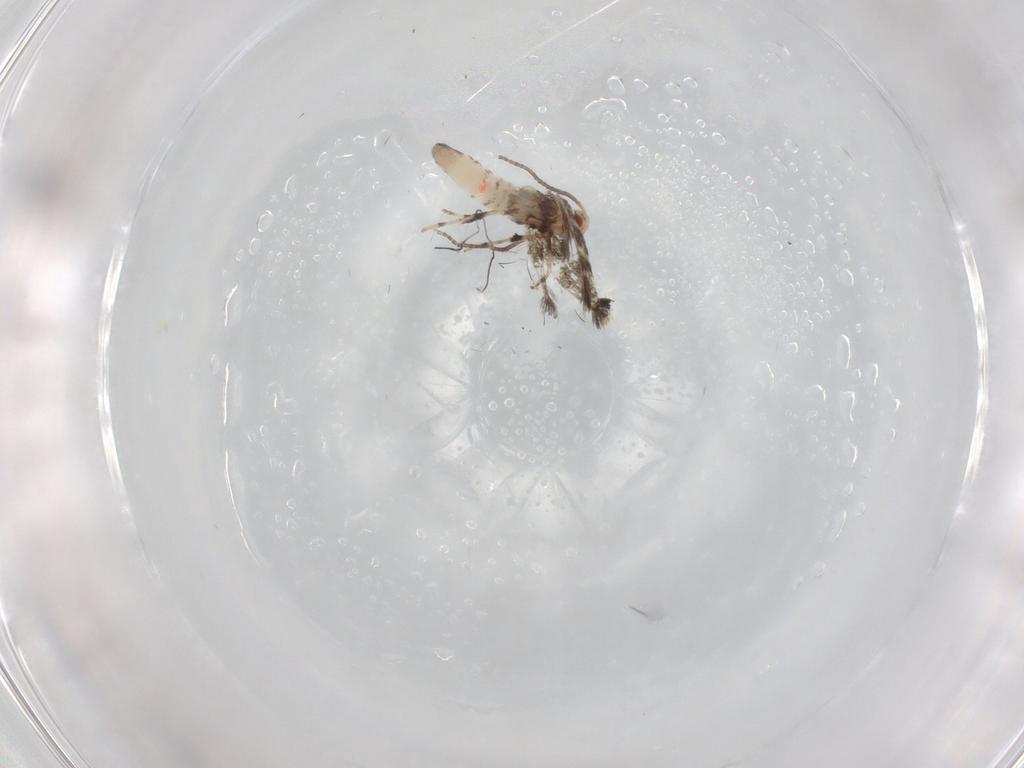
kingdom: Animalia
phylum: Arthropoda
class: Insecta
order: Lepidoptera
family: Gracillariidae
